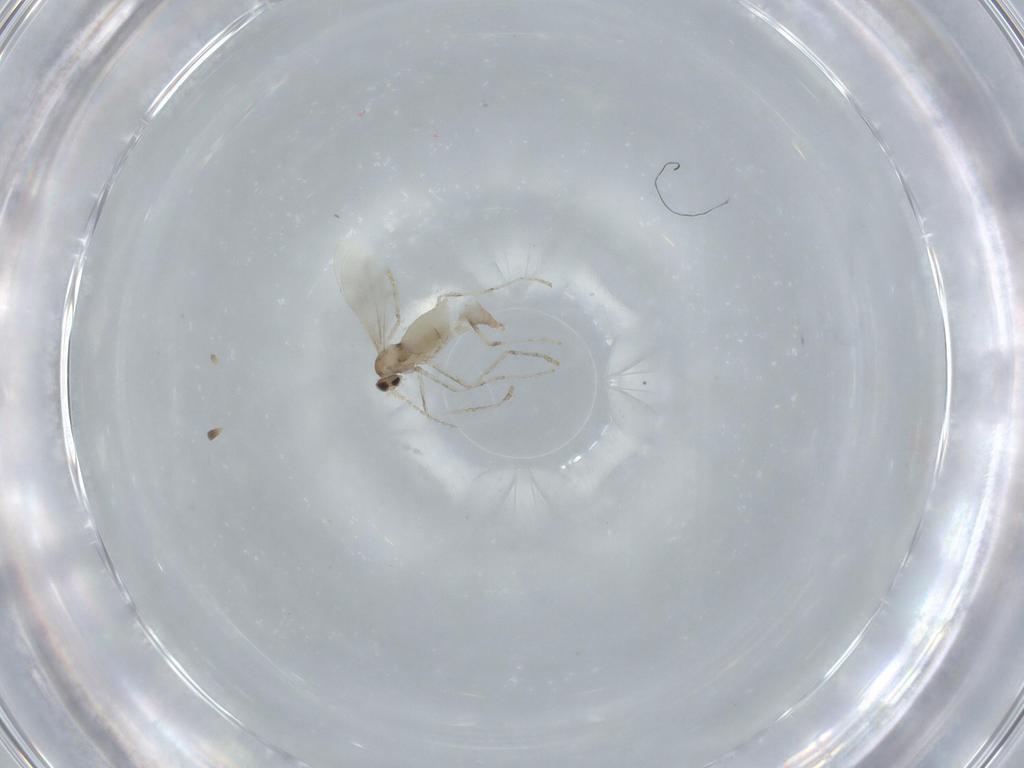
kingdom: Animalia
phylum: Arthropoda
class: Insecta
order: Diptera
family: Cecidomyiidae
